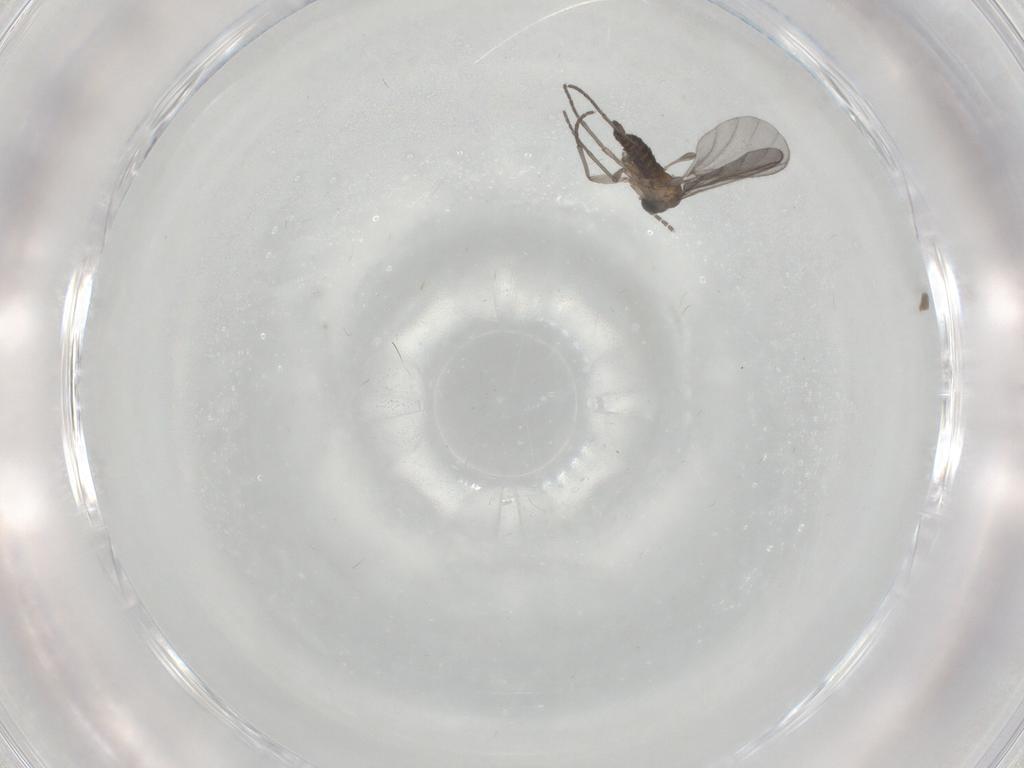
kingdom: Animalia
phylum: Arthropoda
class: Insecta
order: Diptera
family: Sciaridae
